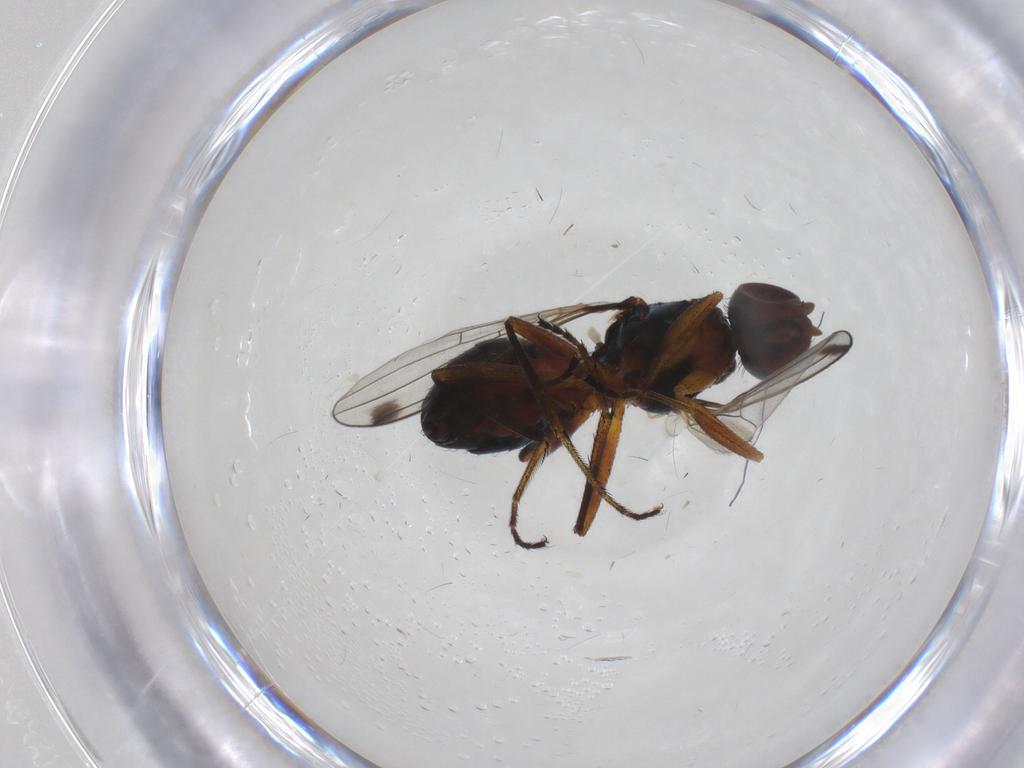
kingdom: Animalia
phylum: Arthropoda
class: Insecta
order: Diptera
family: Sepsidae
